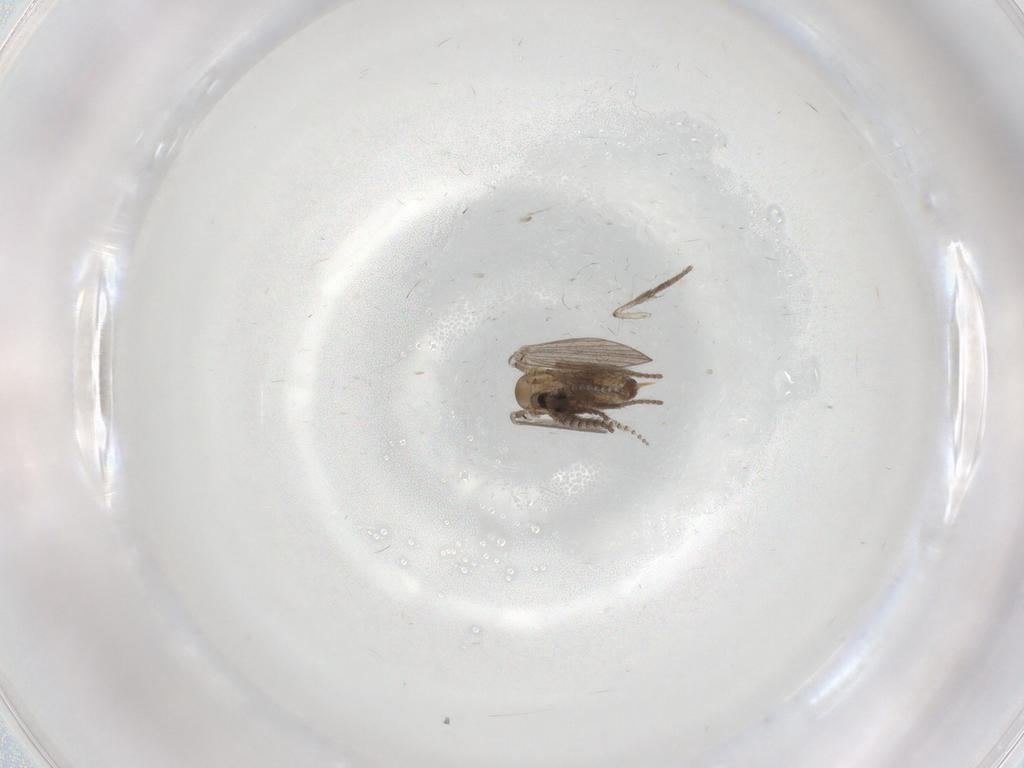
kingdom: Animalia
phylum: Arthropoda
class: Insecta
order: Diptera
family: Psychodidae
